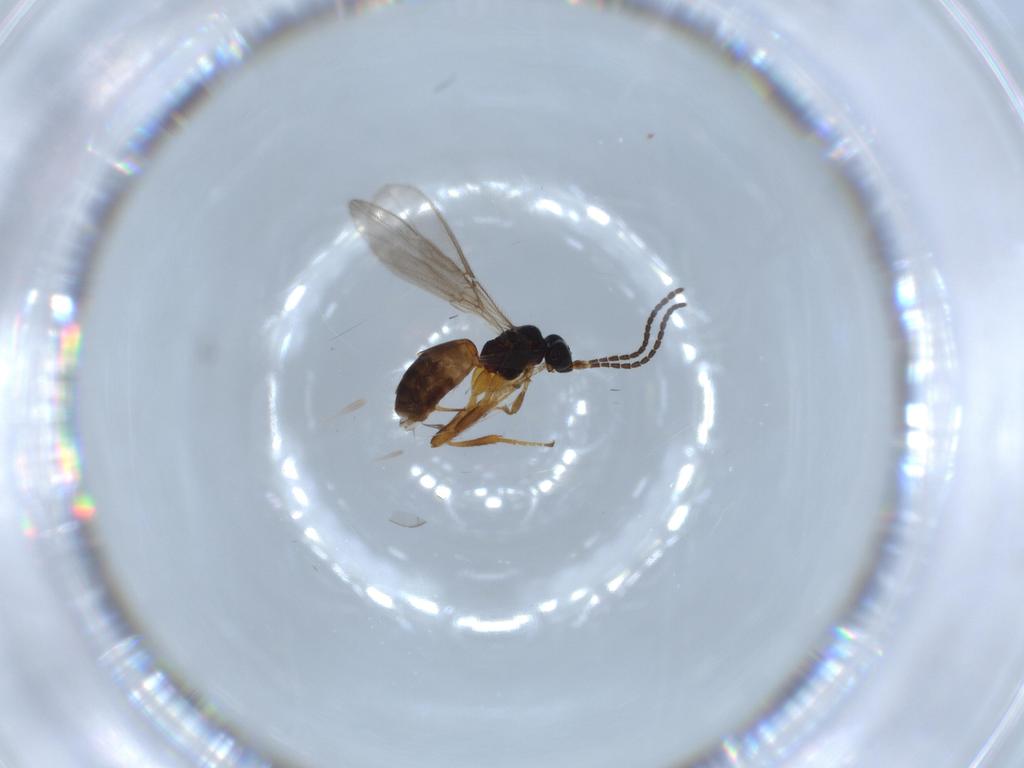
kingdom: Animalia
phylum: Arthropoda
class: Insecta
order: Hymenoptera
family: Braconidae
